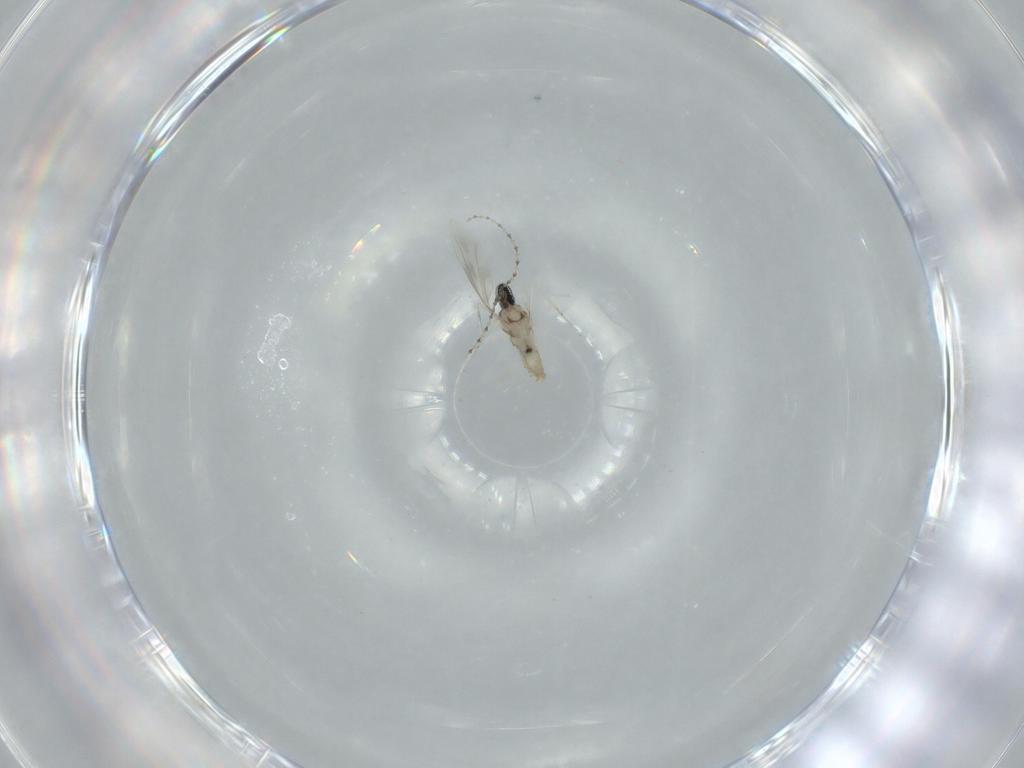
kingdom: Animalia
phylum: Arthropoda
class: Insecta
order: Diptera
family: Cecidomyiidae
